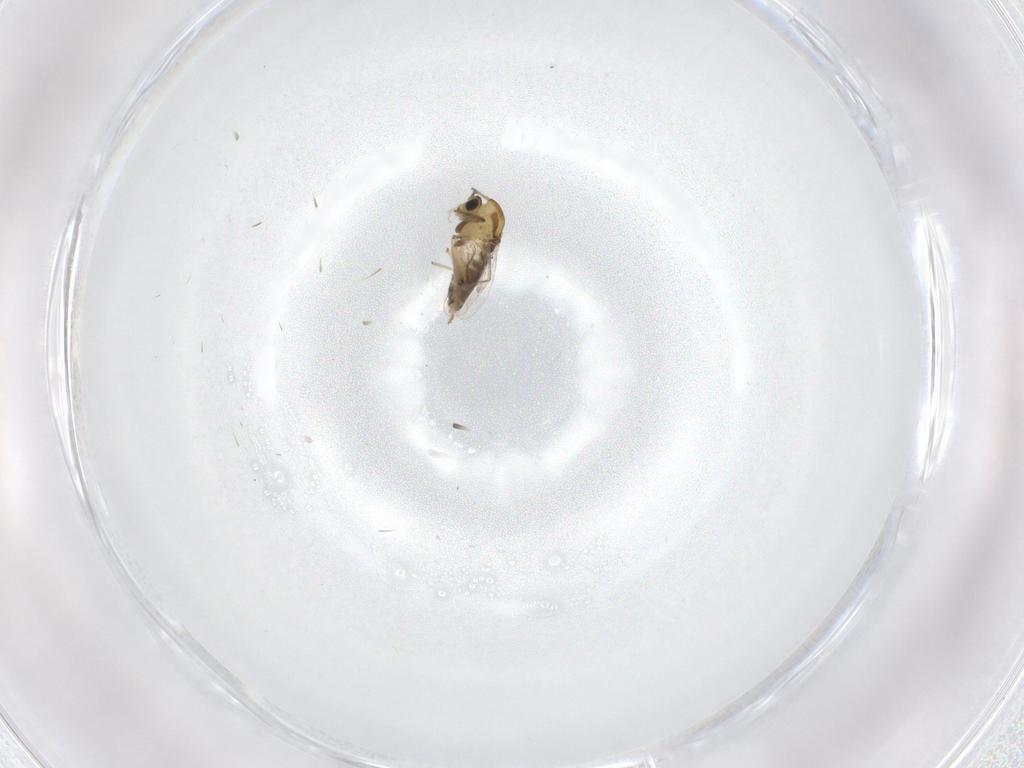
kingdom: Animalia
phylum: Arthropoda
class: Insecta
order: Diptera
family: Chironomidae
